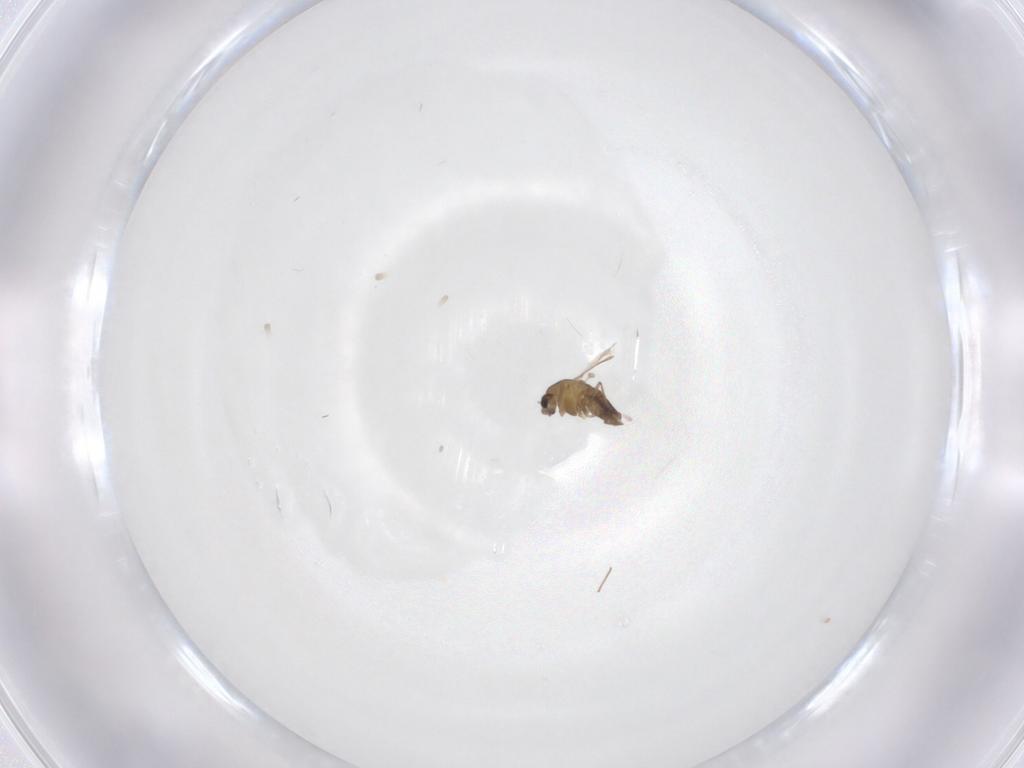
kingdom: Animalia
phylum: Arthropoda
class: Insecta
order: Diptera
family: Chironomidae
